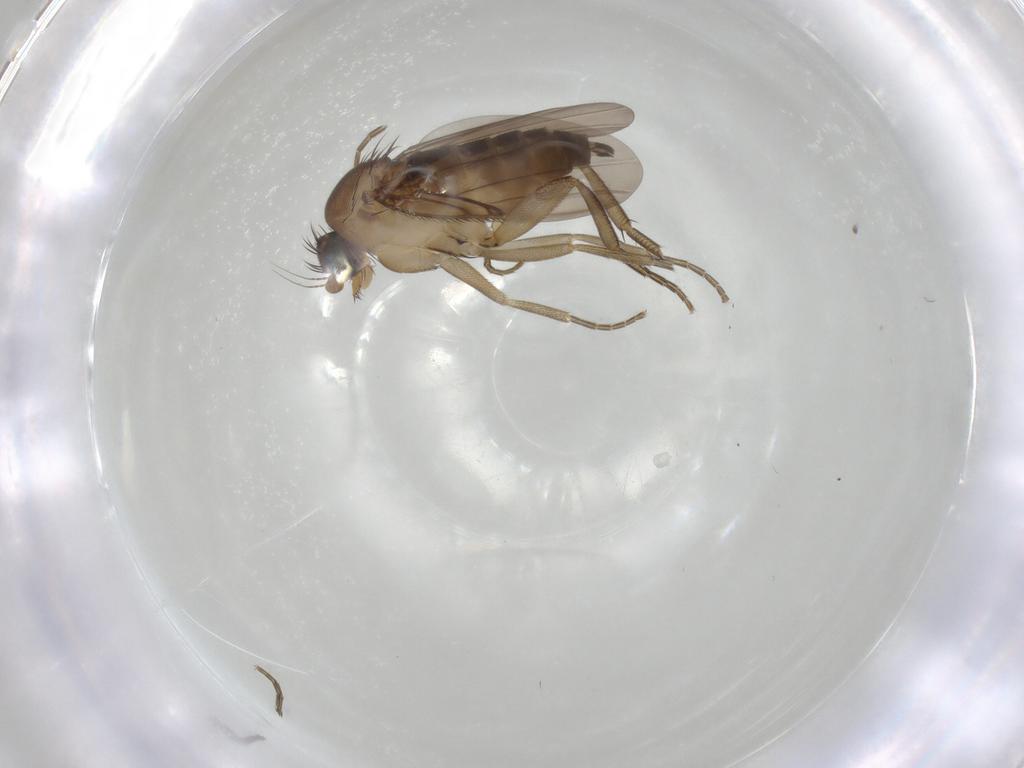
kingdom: Animalia
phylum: Arthropoda
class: Insecta
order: Diptera
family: Phoridae
